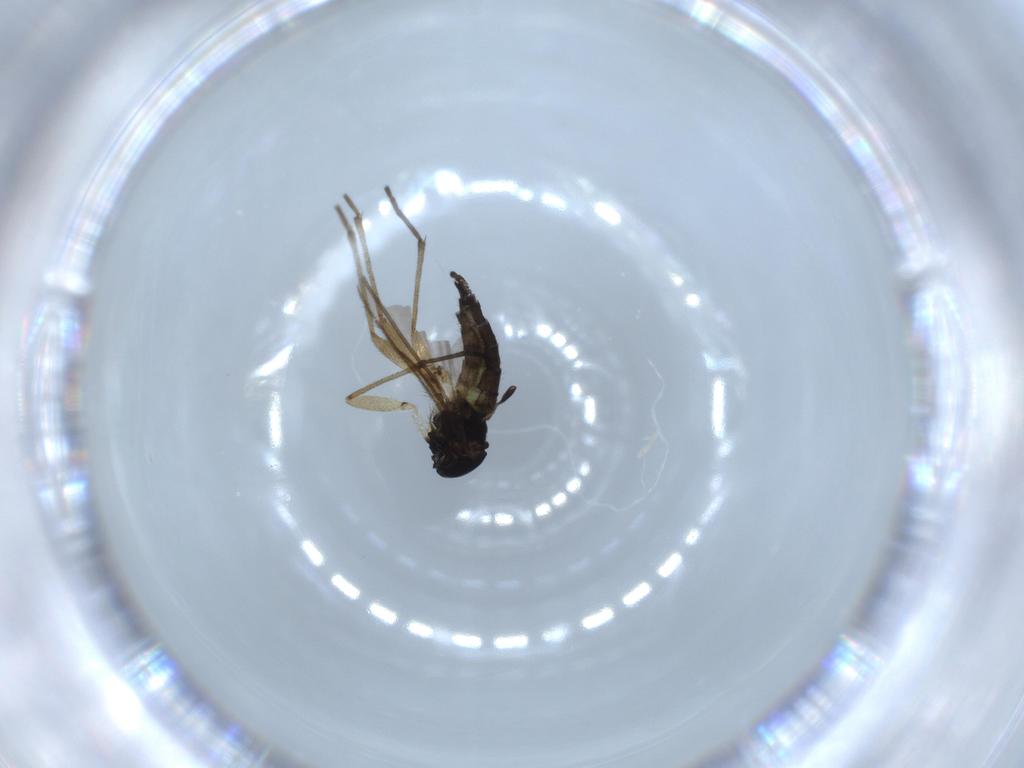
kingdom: Animalia
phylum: Arthropoda
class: Insecta
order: Diptera
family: Sciaridae
